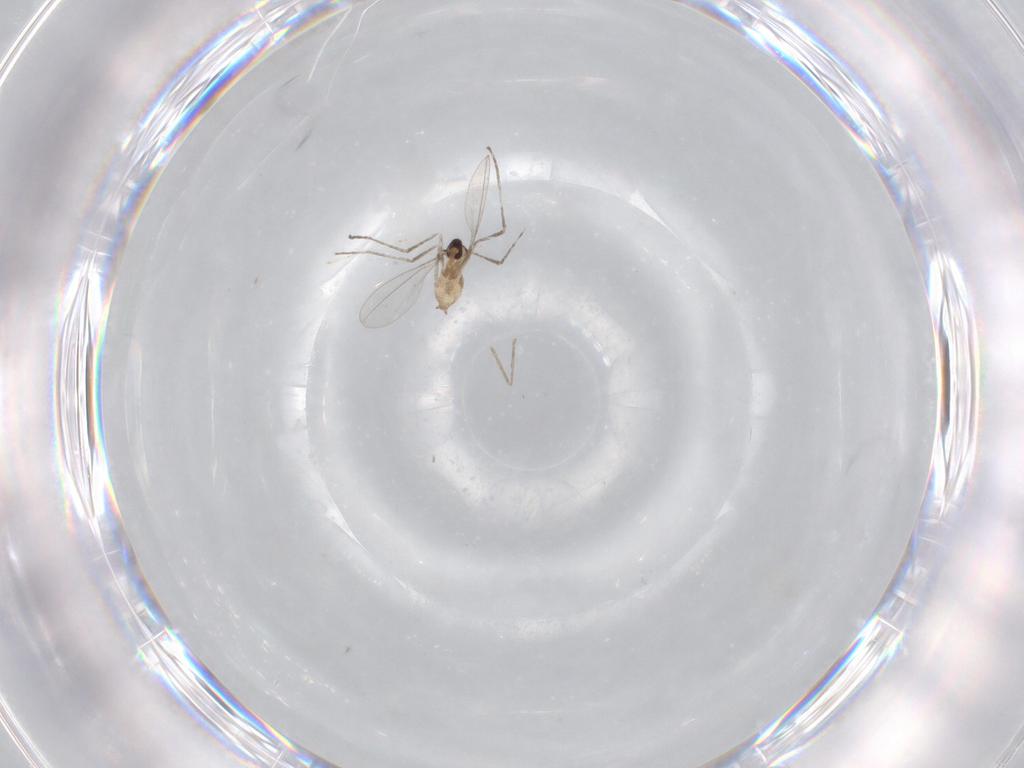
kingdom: Animalia
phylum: Arthropoda
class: Insecta
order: Diptera
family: Cecidomyiidae
